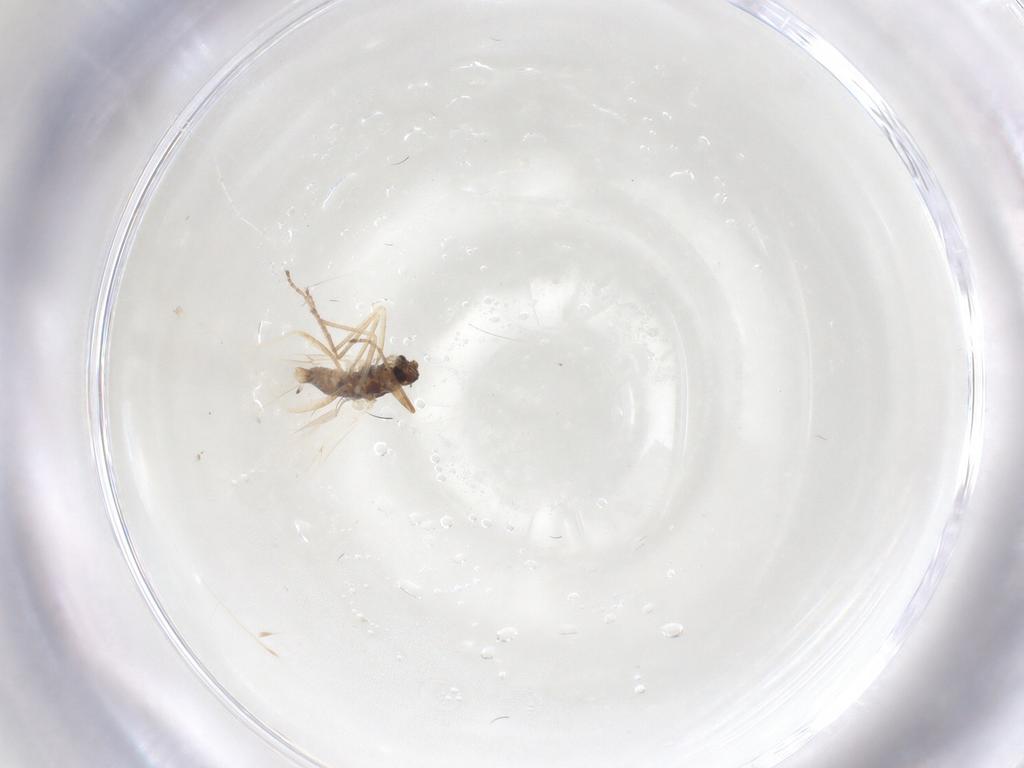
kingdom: Animalia
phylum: Arthropoda
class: Insecta
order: Diptera
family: Cecidomyiidae
